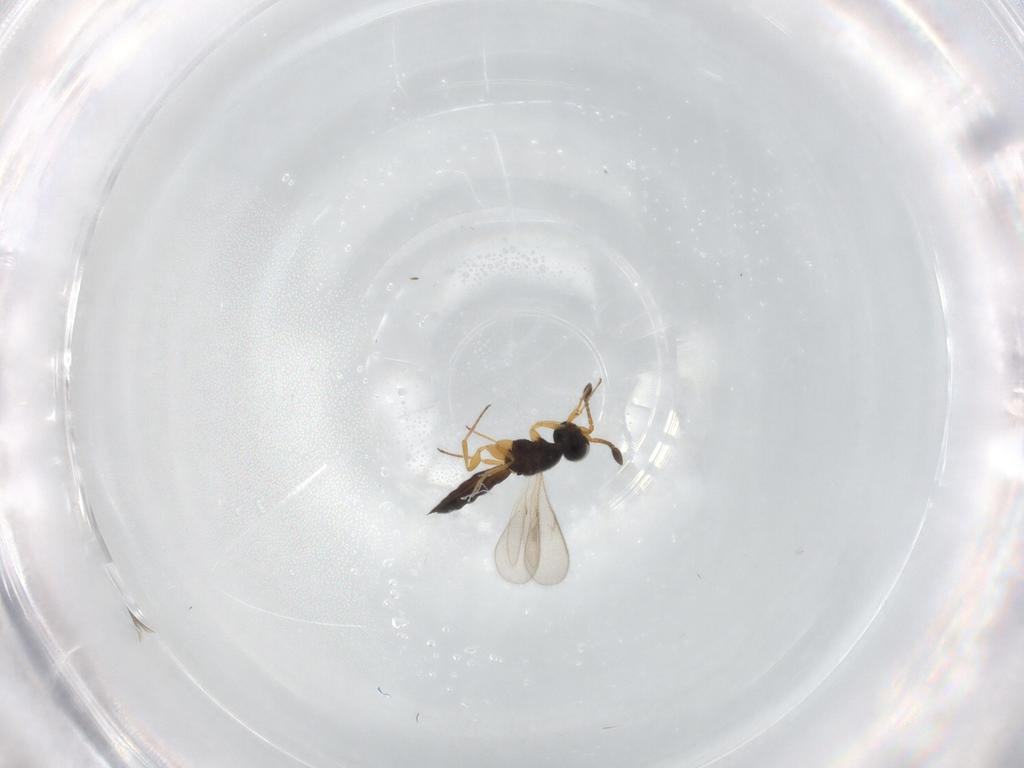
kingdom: Animalia
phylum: Arthropoda
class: Insecta
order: Hymenoptera
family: Scelionidae
